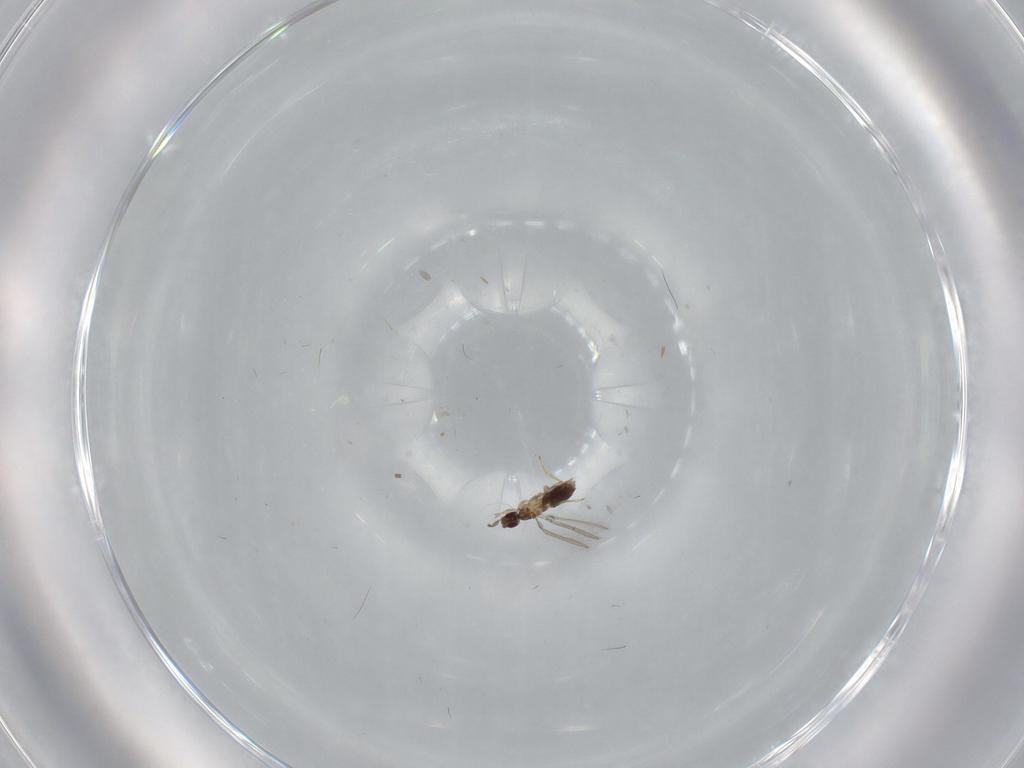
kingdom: Animalia
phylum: Arthropoda
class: Insecta
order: Hymenoptera
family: Mymaridae
